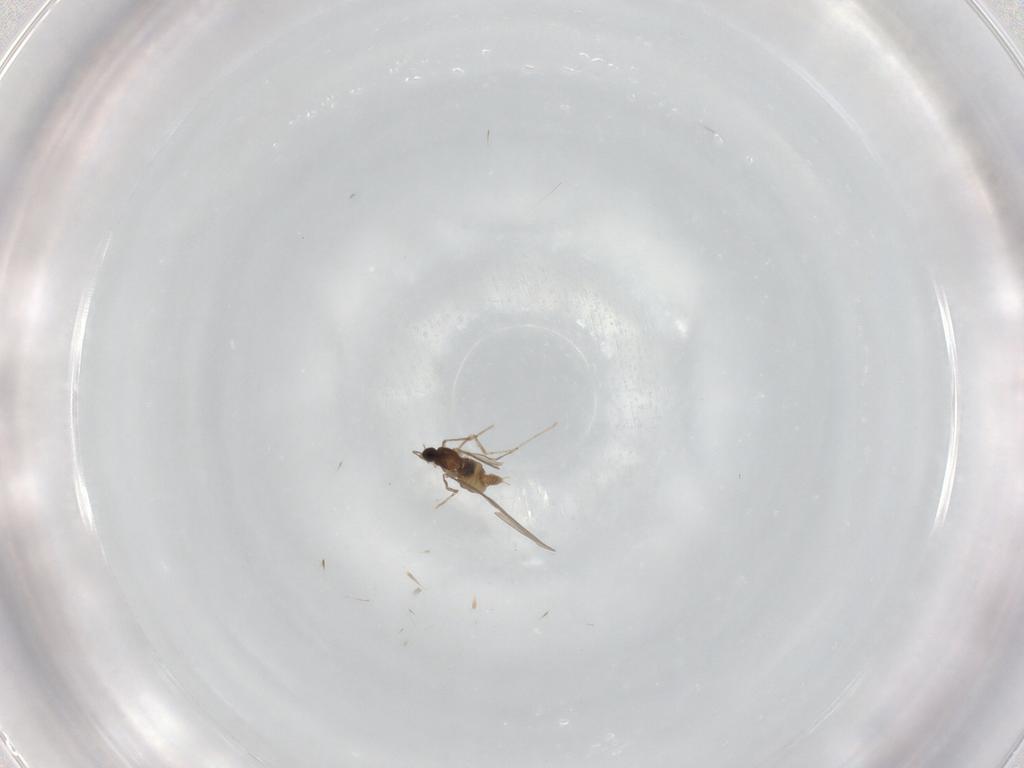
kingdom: Animalia
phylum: Arthropoda
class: Insecta
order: Diptera
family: Cecidomyiidae
